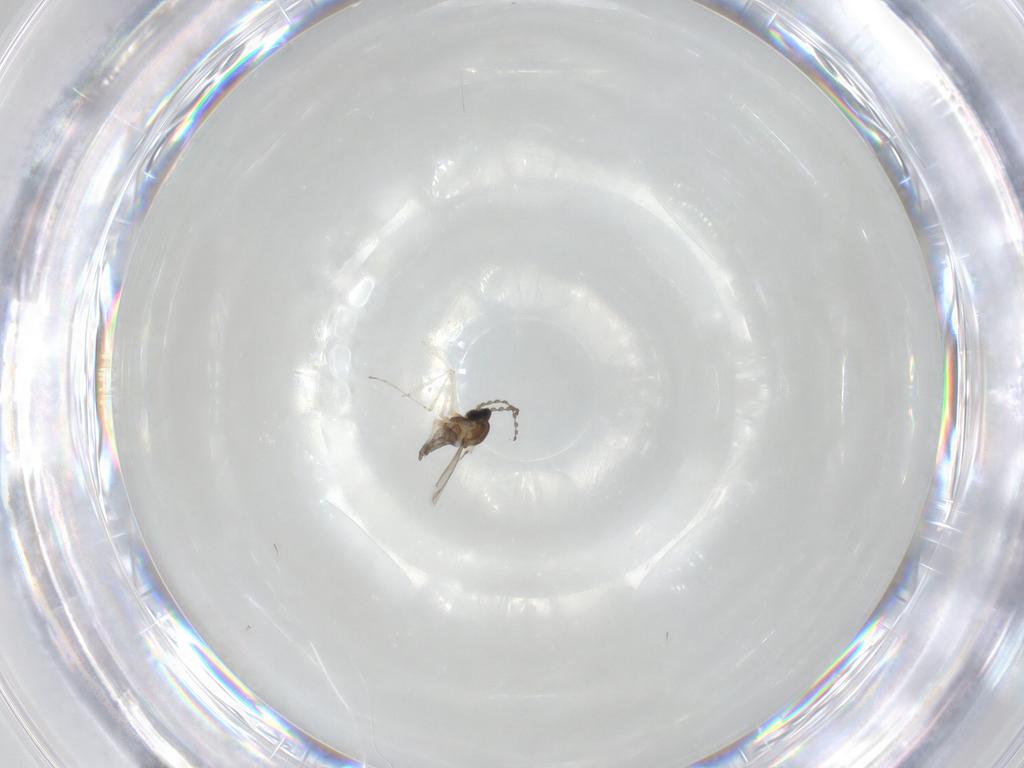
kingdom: Animalia
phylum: Arthropoda
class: Insecta
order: Diptera
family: Cecidomyiidae
